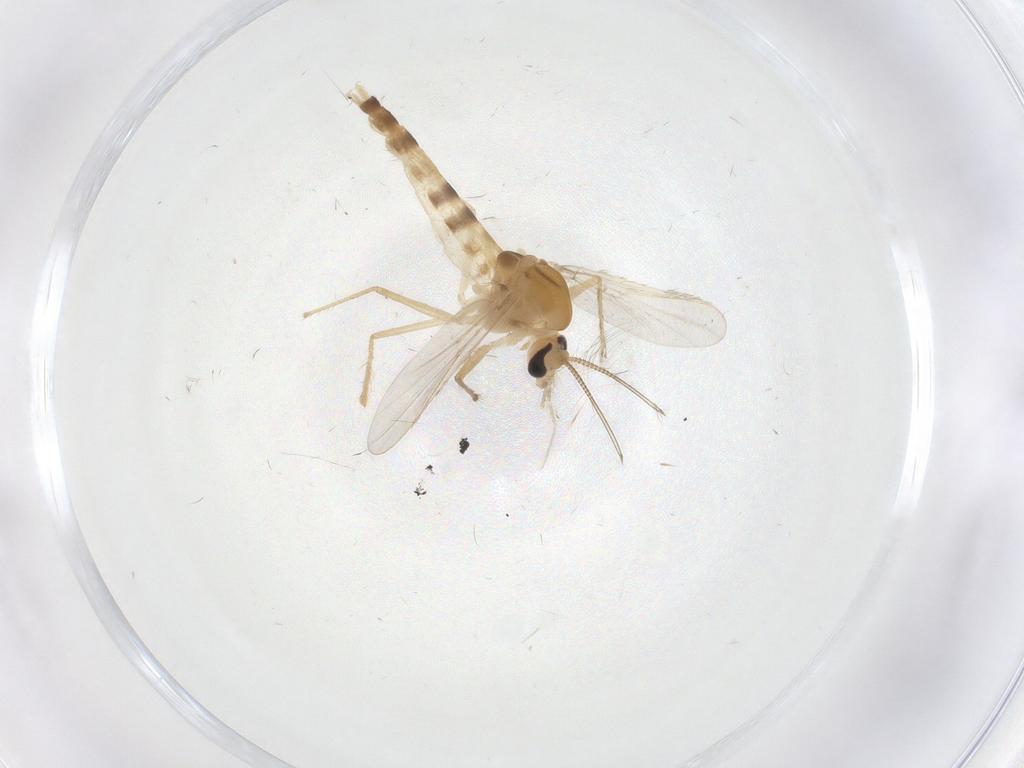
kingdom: Animalia
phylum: Arthropoda
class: Insecta
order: Diptera
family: Chironomidae
